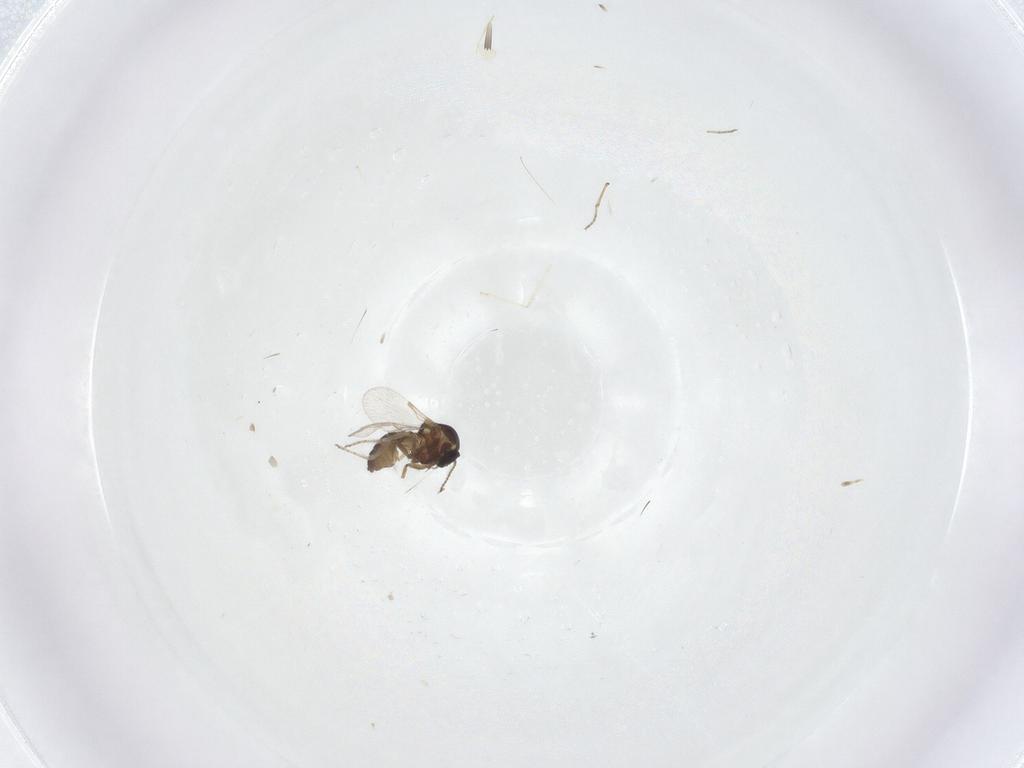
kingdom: Animalia
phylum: Arthropoda
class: Insecta
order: Diptera
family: Ceratopogonidae
